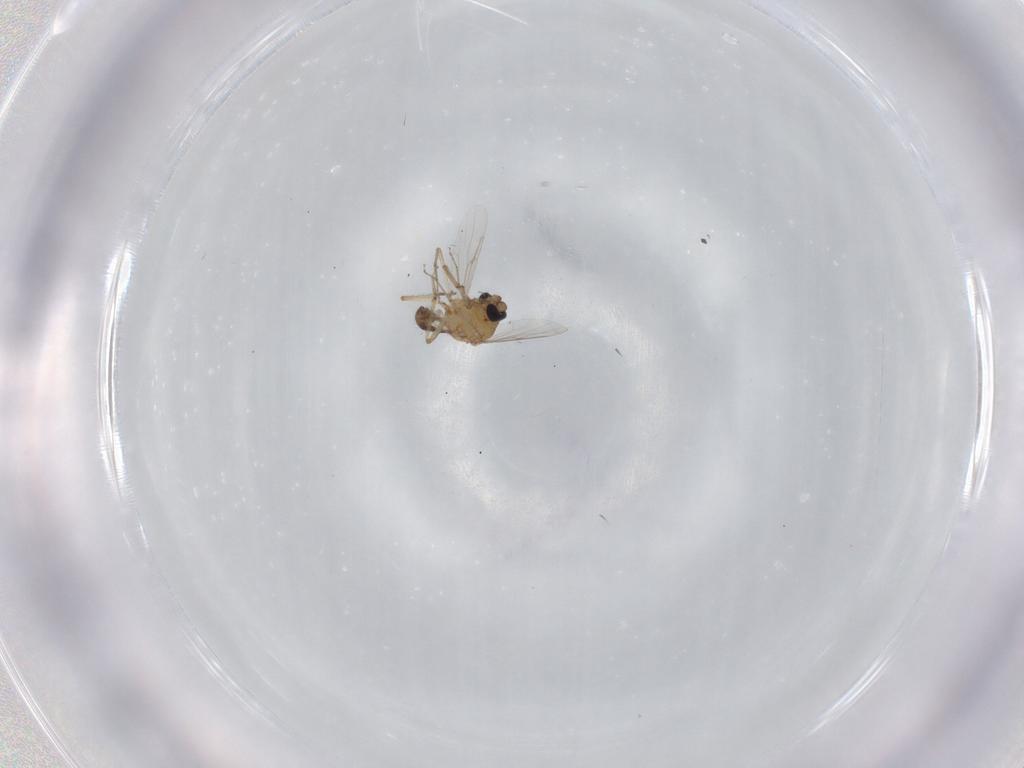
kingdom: Animalia
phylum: Arthropoda
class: Insecta
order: Diptera
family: Ceratopogonidae
